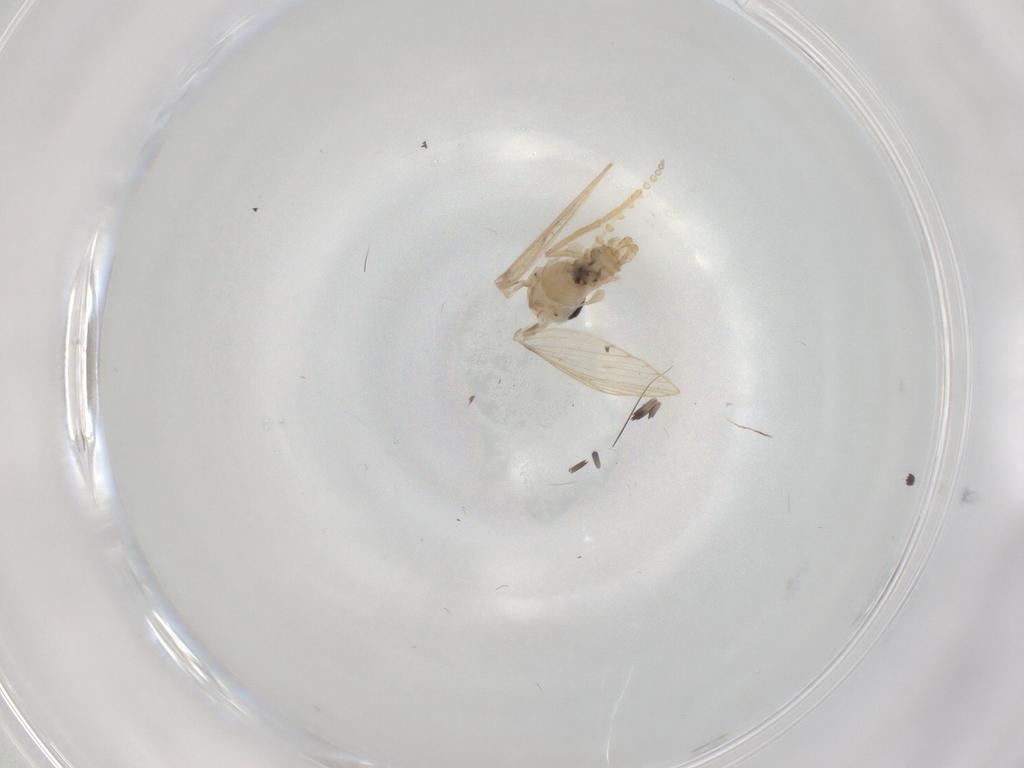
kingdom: Animalia
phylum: Arthropoda
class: Insecta
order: Diptera
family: Psychodidae
